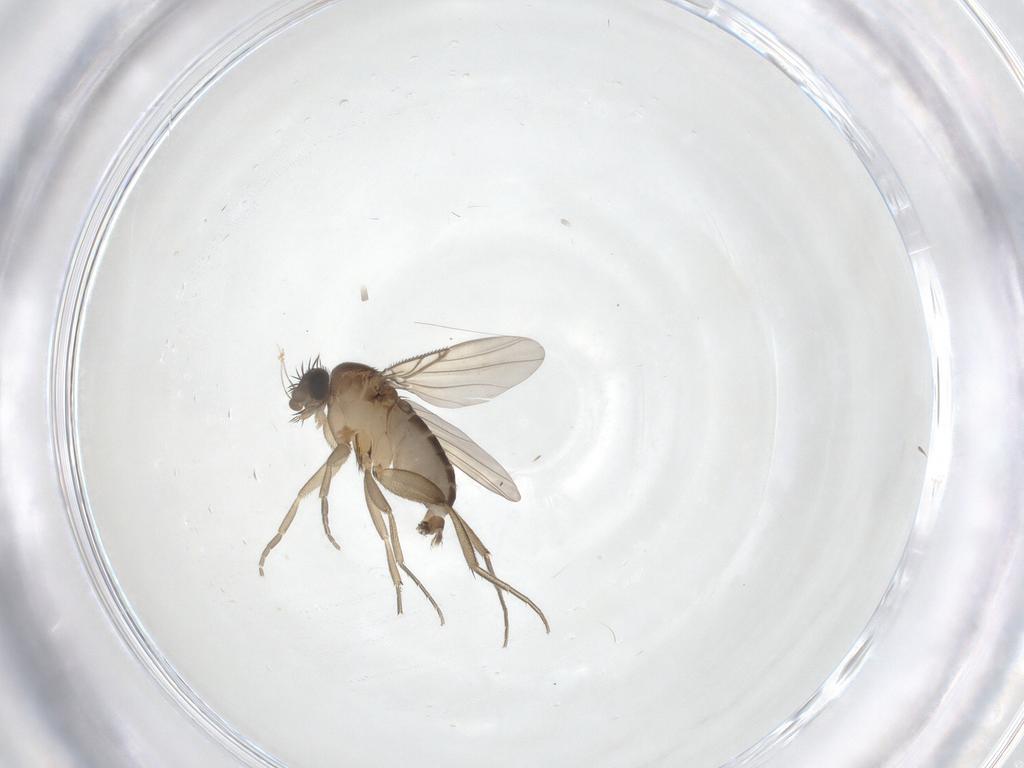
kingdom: Animalia
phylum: Arthropoda
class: Insecta
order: Diptera
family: Phoridae
